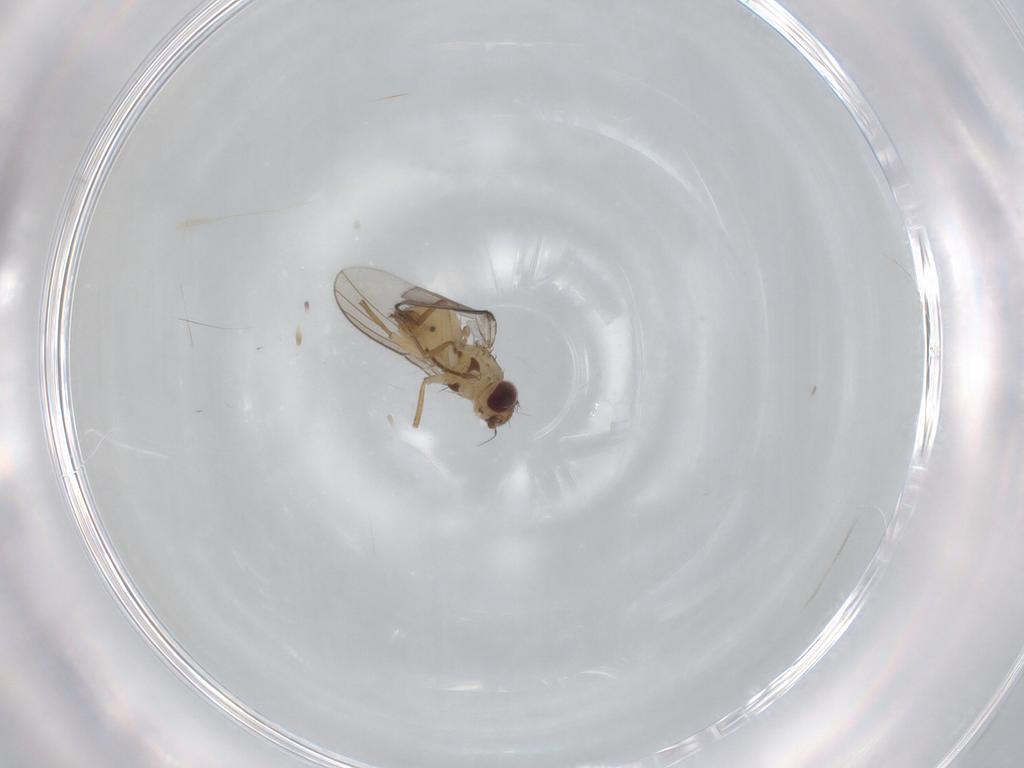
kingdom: Animalia
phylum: Arthropoda
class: Insecta
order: Diptera
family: Agromyzidae
